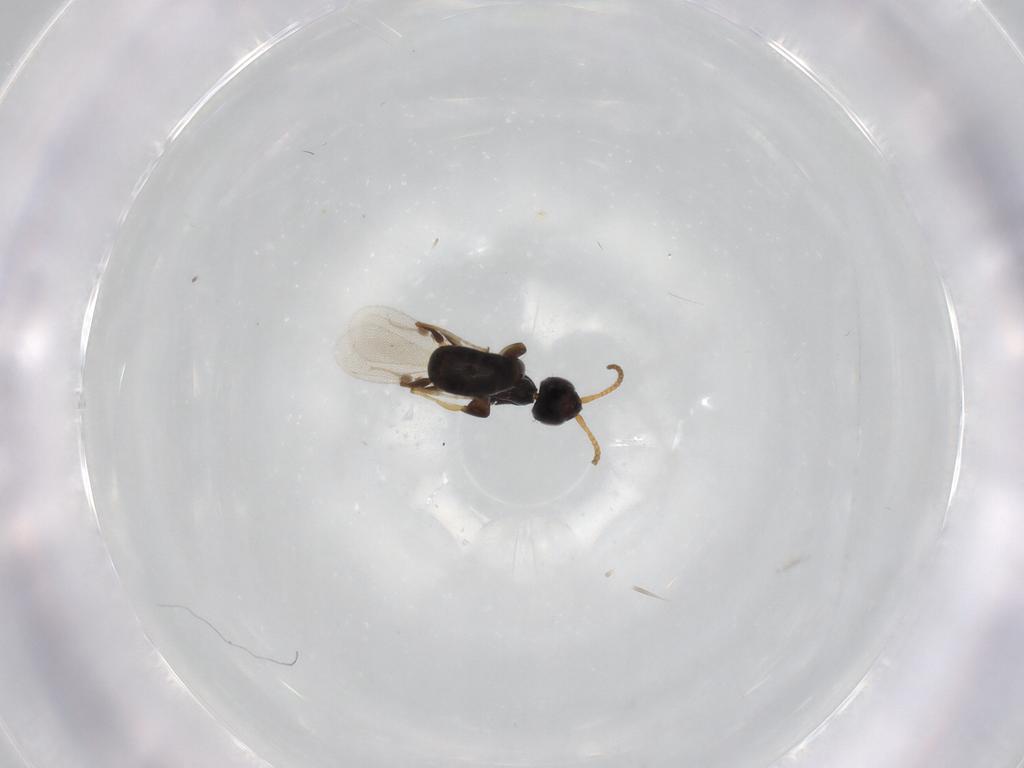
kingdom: Animalia
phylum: Arthropoda
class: Insecta
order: Hymenoptera
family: Bethylidae
